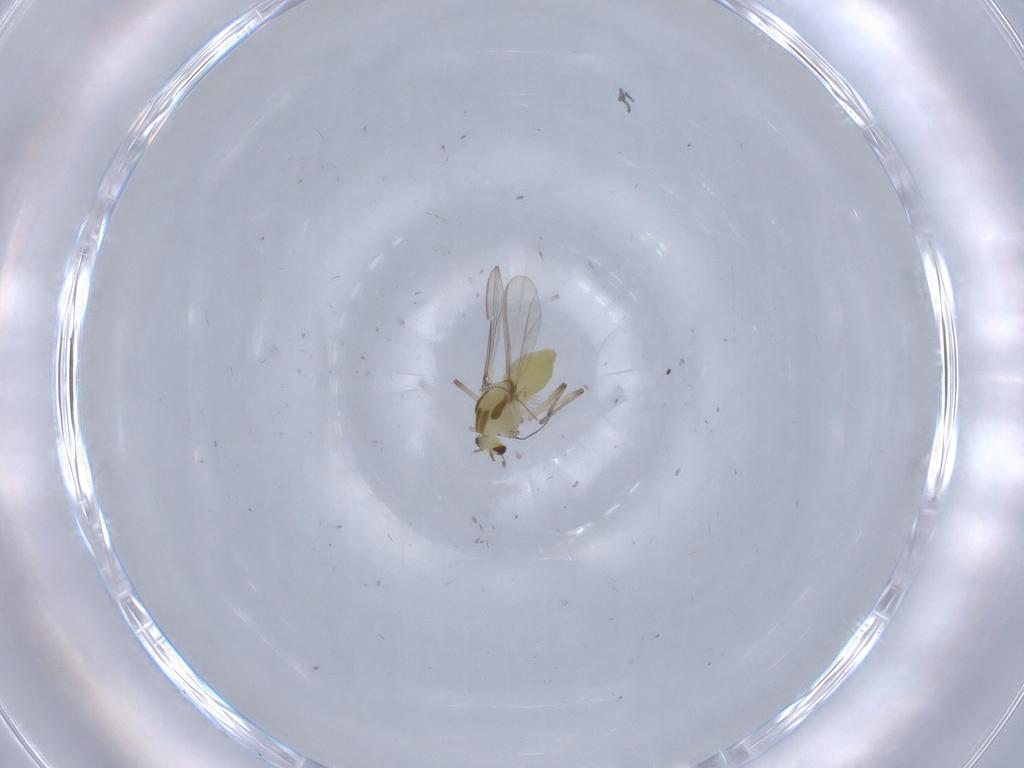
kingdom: Animalia
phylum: Arthropoda
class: Insecta
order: Diptera
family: Chironomidae
